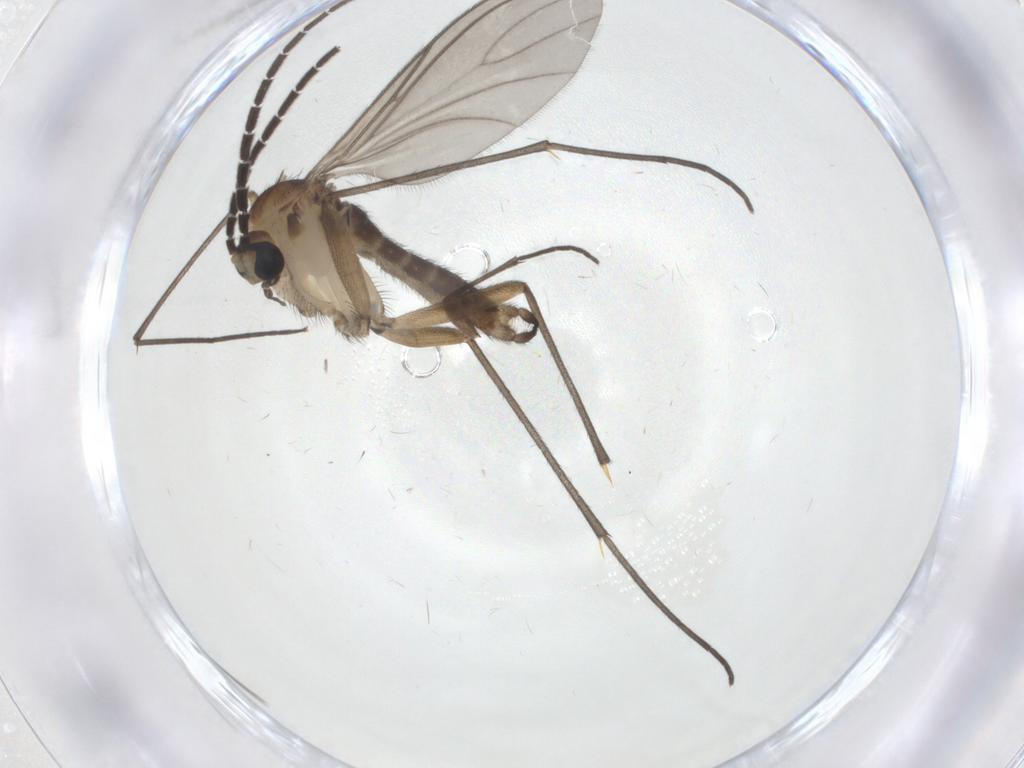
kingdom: Animalia
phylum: Arthropoda
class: Insecta
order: Diptera
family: Sciaridae
